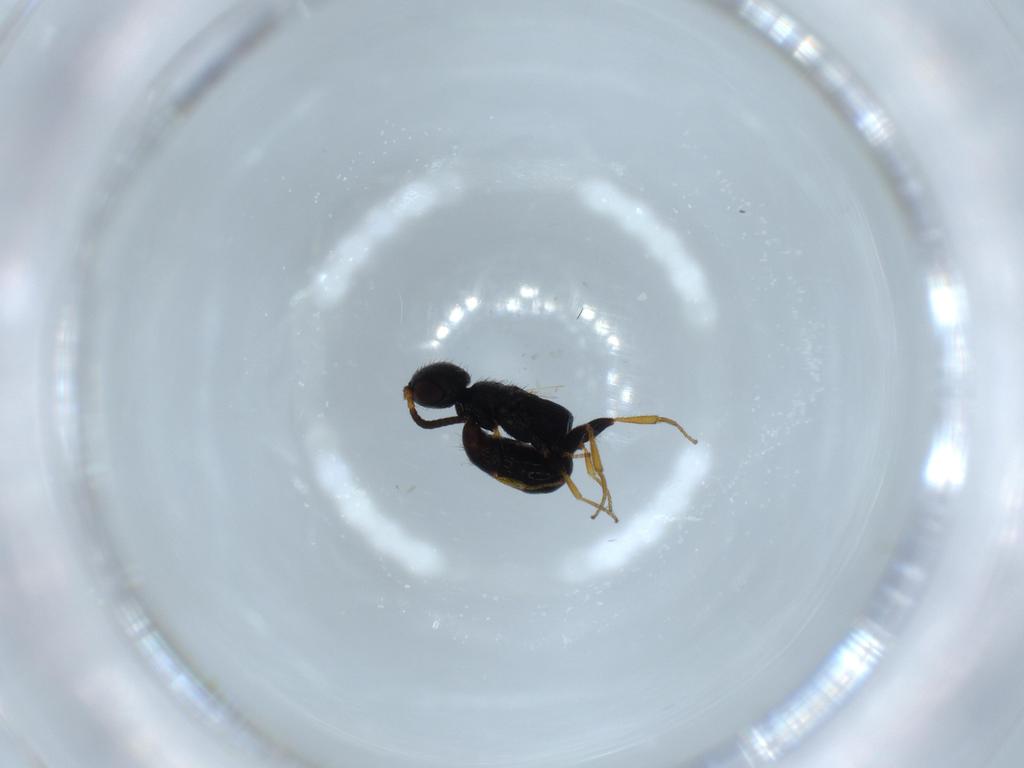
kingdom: Animalia
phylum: Arthropoda
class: Insecta
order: Hymenoptera
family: Bethylidae
